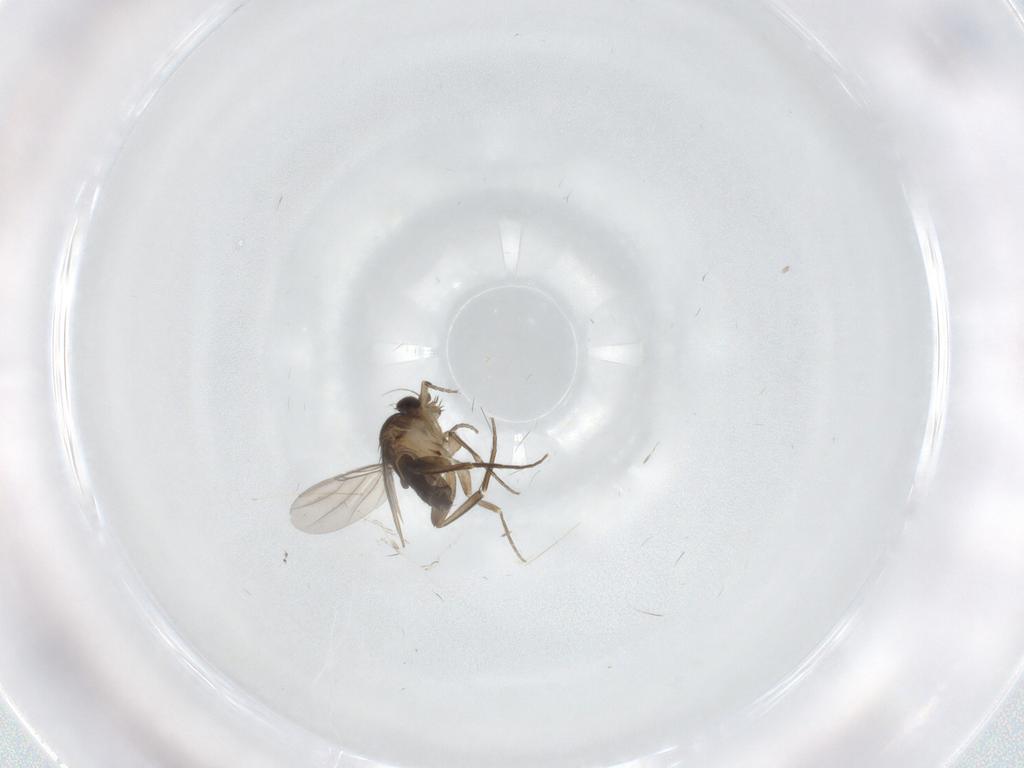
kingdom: Animalia
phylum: Arthropoda
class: Insecta
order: Diptera
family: Phoridae
